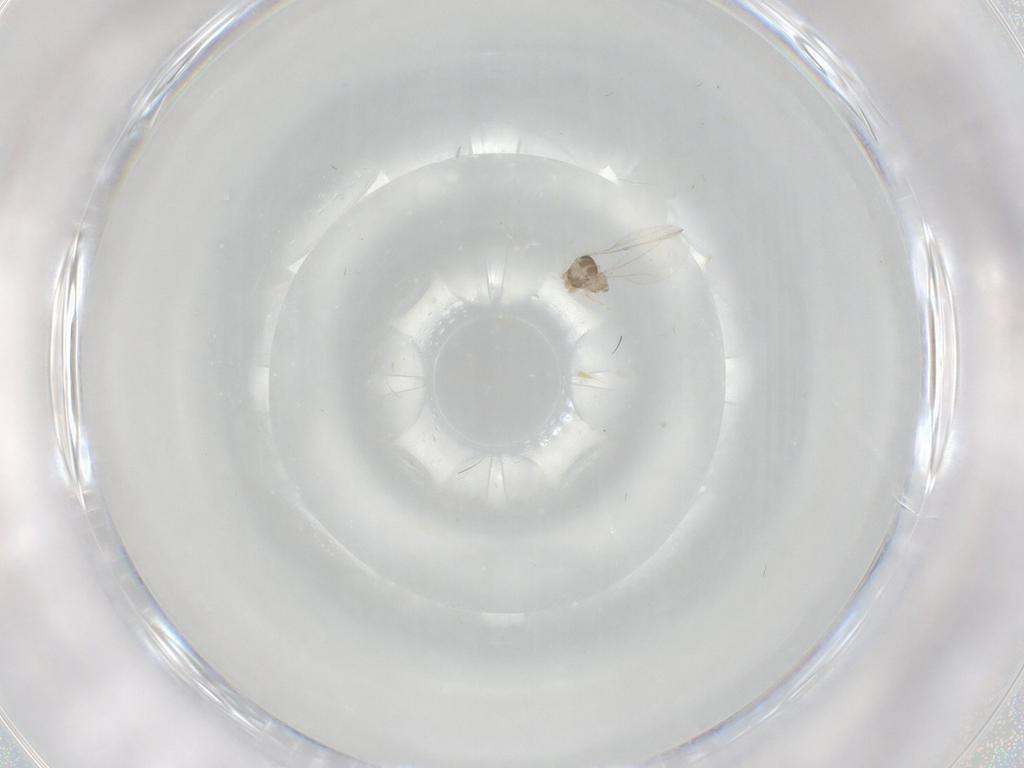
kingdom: Animalia
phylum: Arthropoda
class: Insecta
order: Diptera
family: Cecidomyiidae
